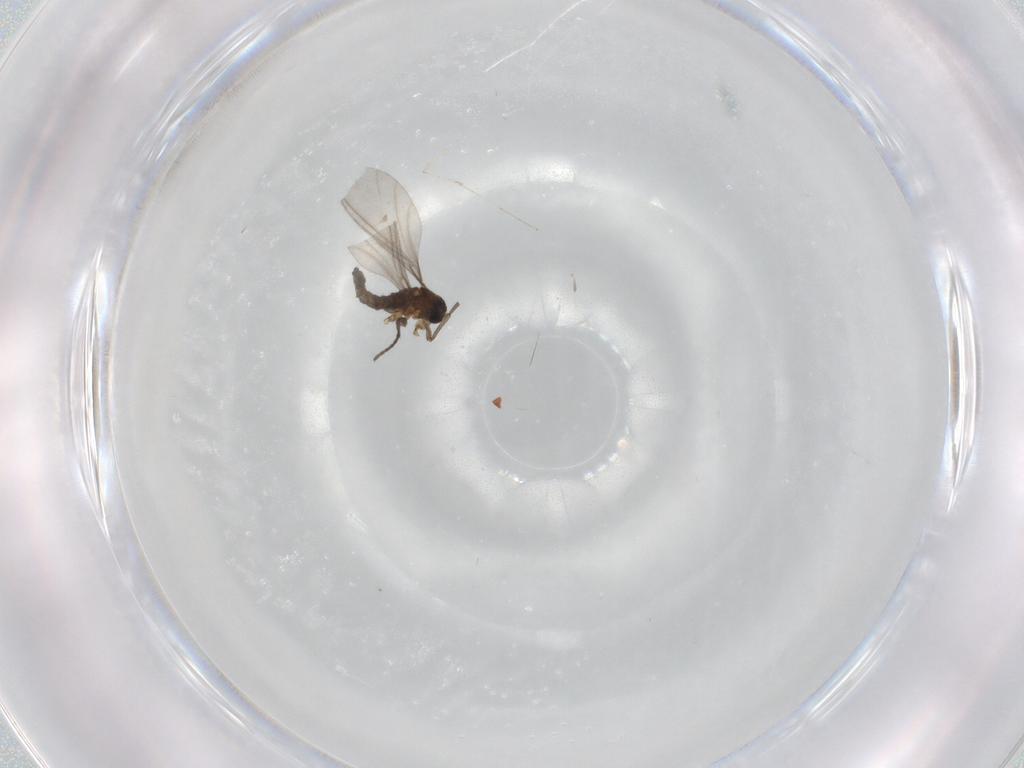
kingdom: Animalia
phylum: Arthropoda
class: Insecta
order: Diptera
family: Sciaridae
